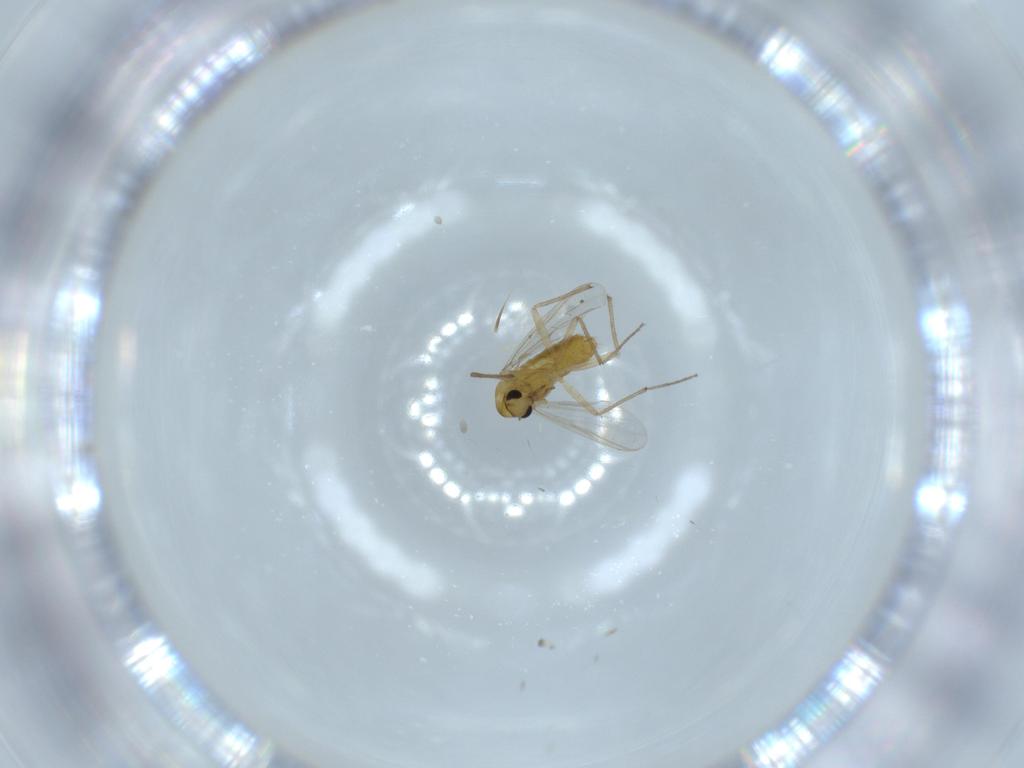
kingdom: Animalia
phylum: Arthropoda
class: Insecta
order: Diptera
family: Chironomidae
